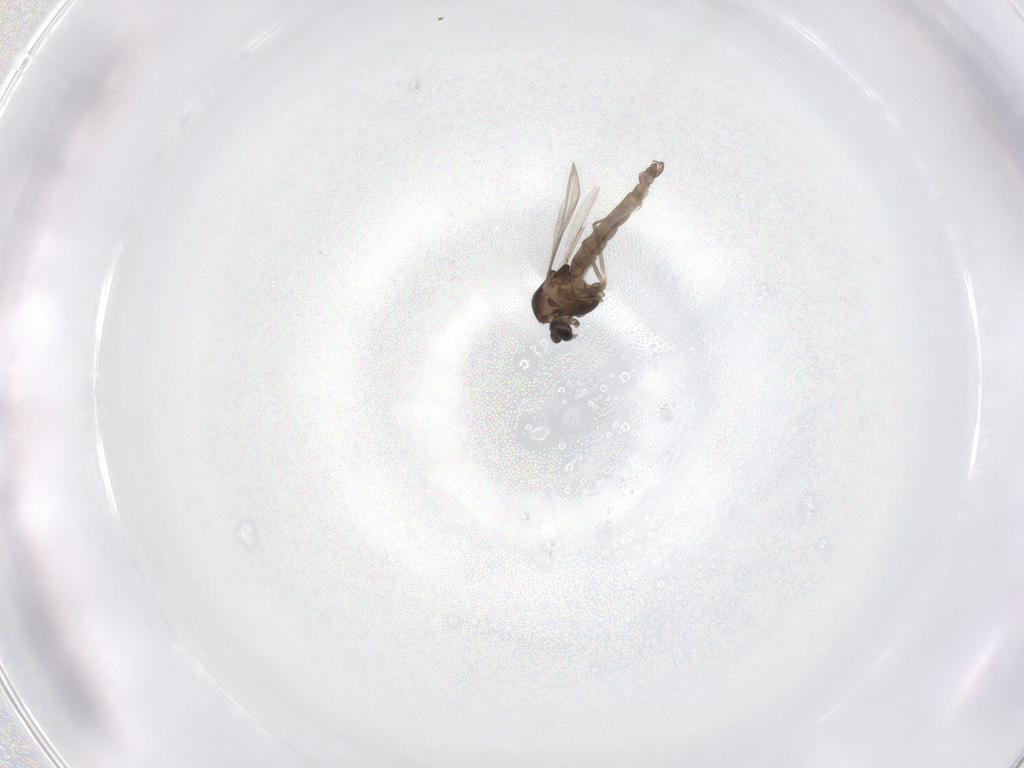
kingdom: Animalia
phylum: Arthropoda
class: Insecta
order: Diptera
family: Chironomidae
